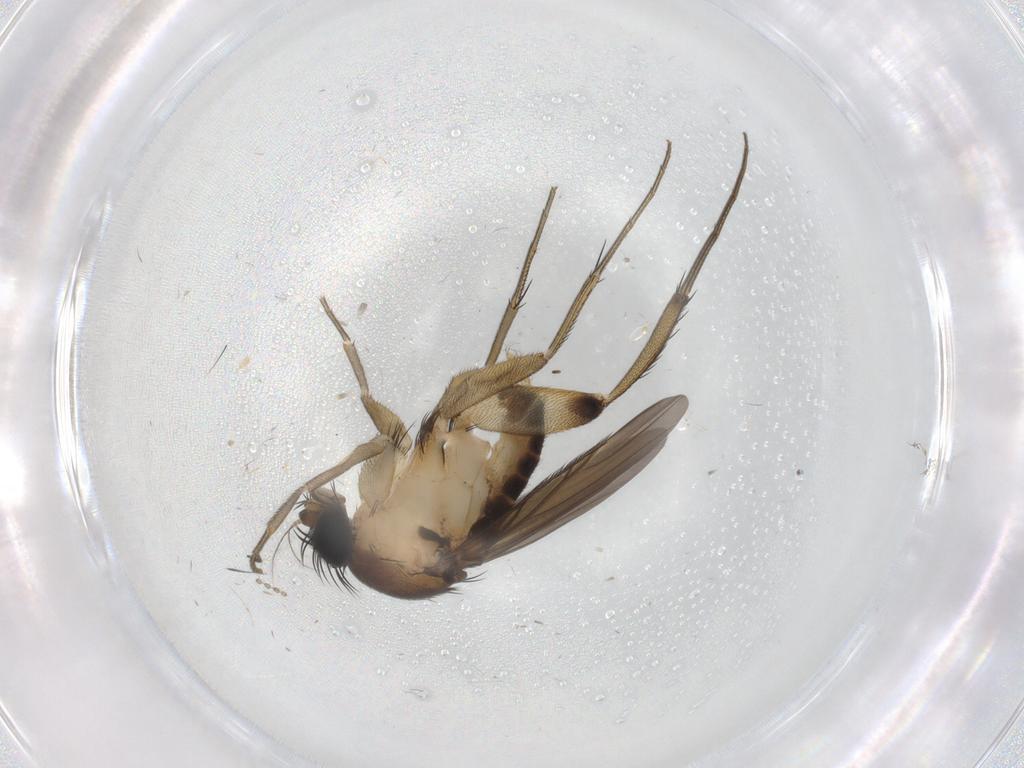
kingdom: Animalia
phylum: Arthropoda
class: Insecta
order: Diptera
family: Phoridae
